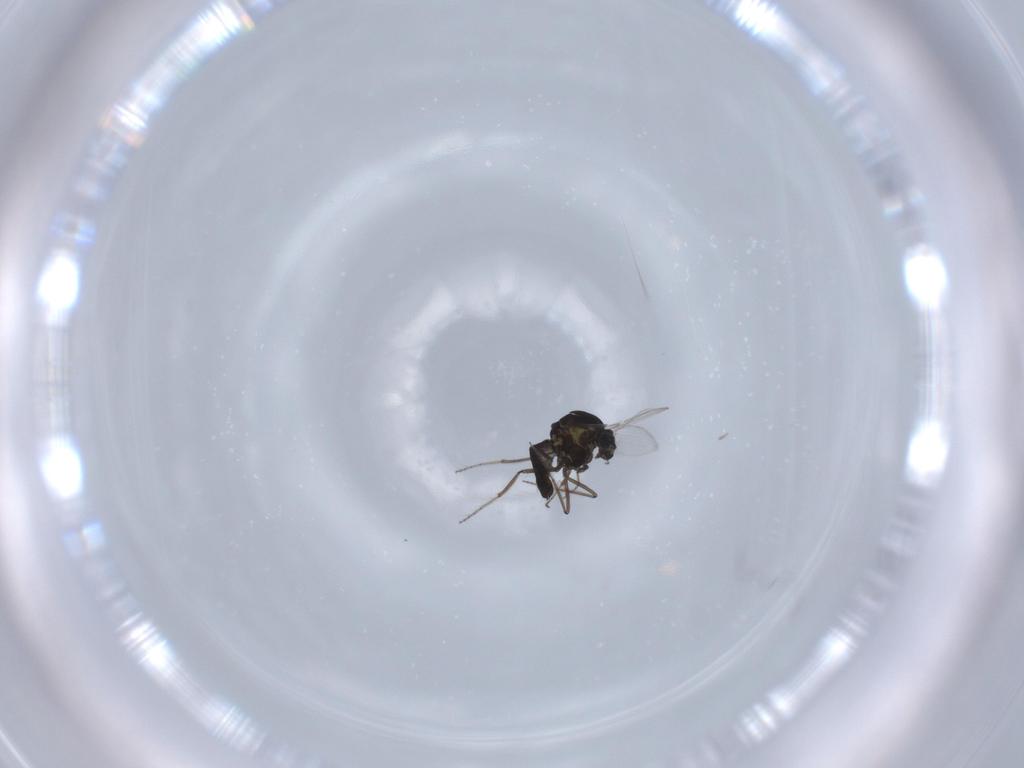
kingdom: Animalia
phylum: Arthropoda
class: Insecta
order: Diptera
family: Ceratopogonidae
